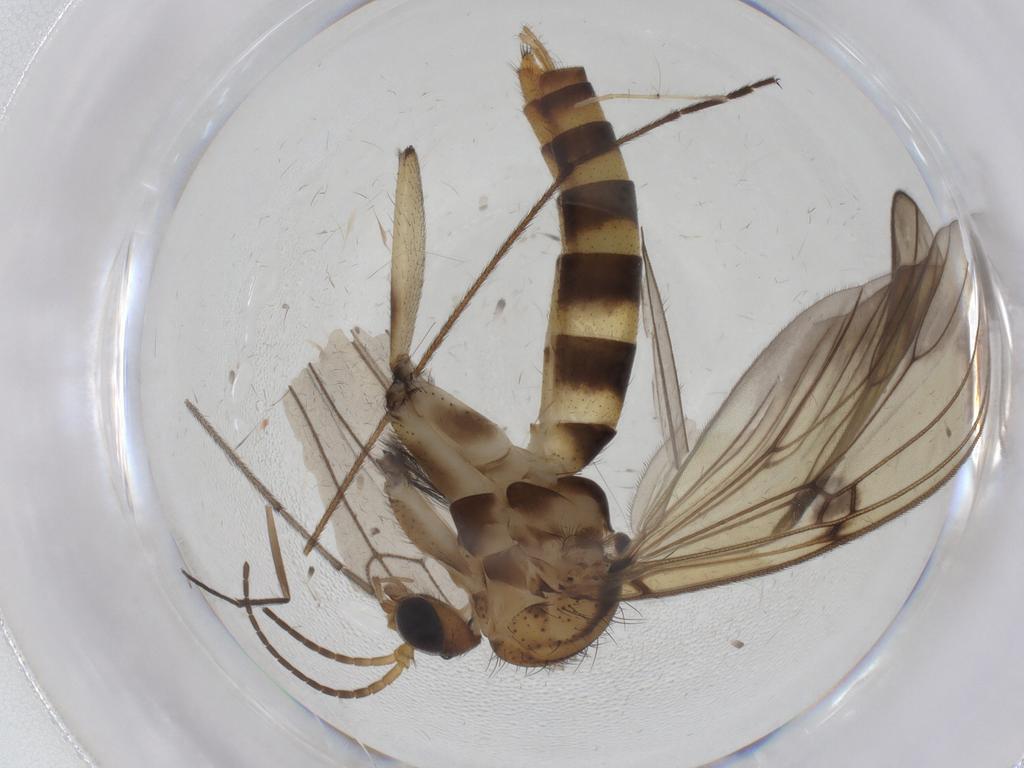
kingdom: Animalia
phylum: Arthropoda
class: Insecta
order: Diptera
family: Mycetophilidae
